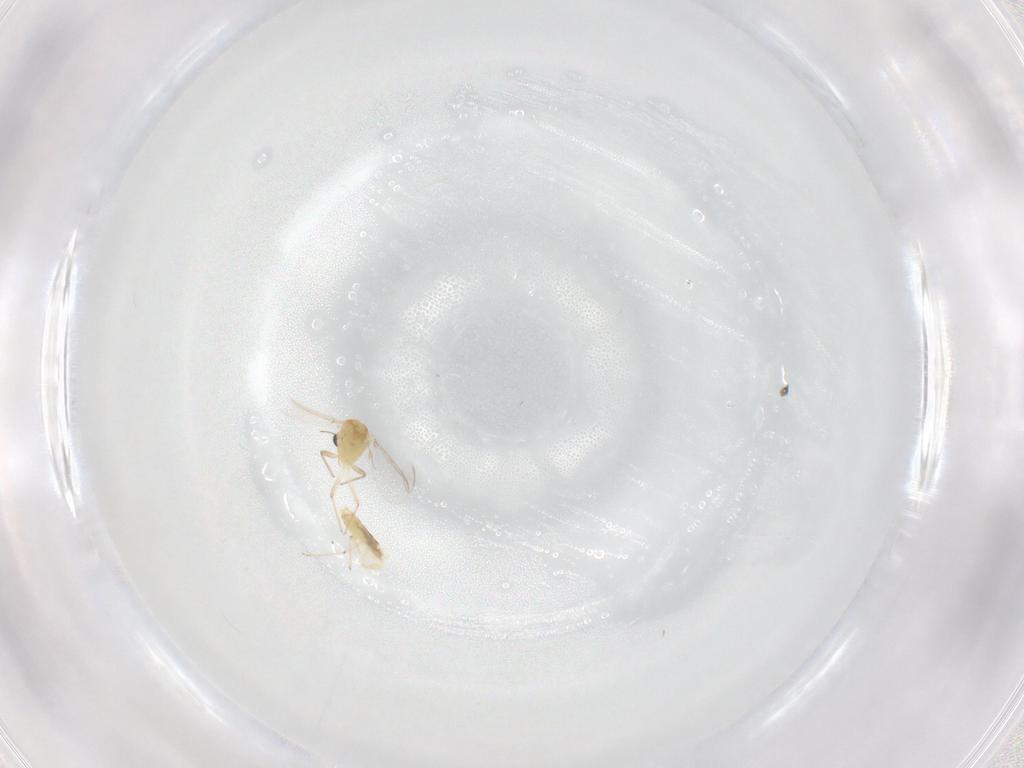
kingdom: Animalia
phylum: Arthropoda
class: Insecta
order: Diptera
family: Chironomidae
